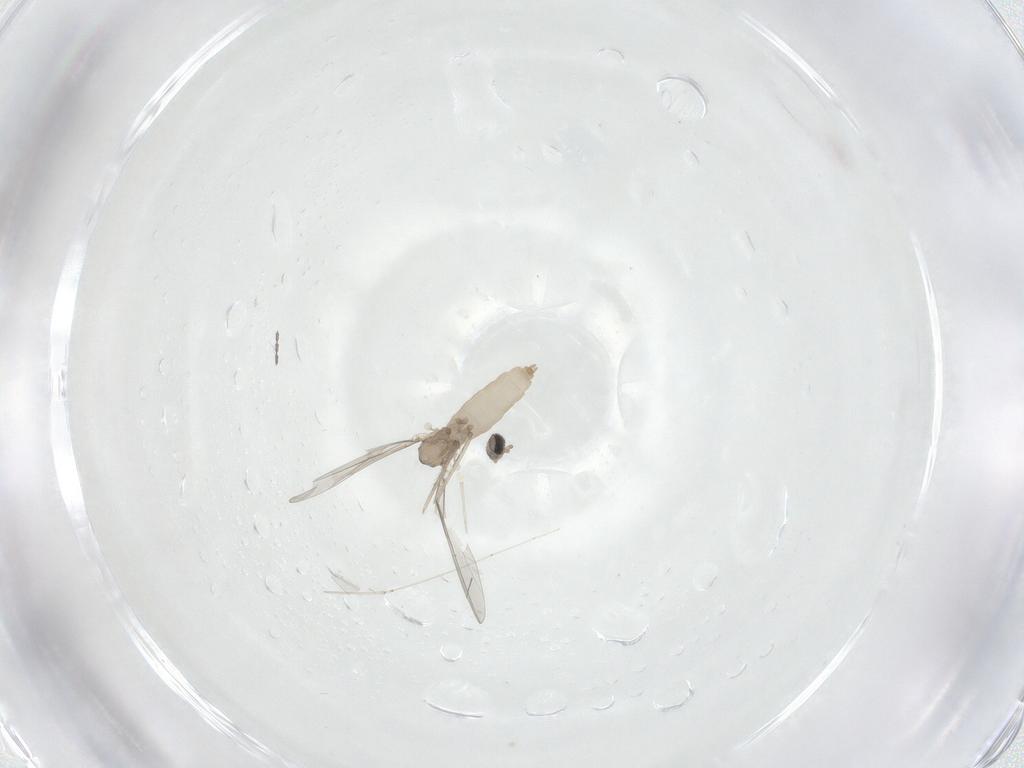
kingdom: Animalia
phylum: Arthropoda
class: Insecta
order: Diptera
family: Cecidomyiidae
